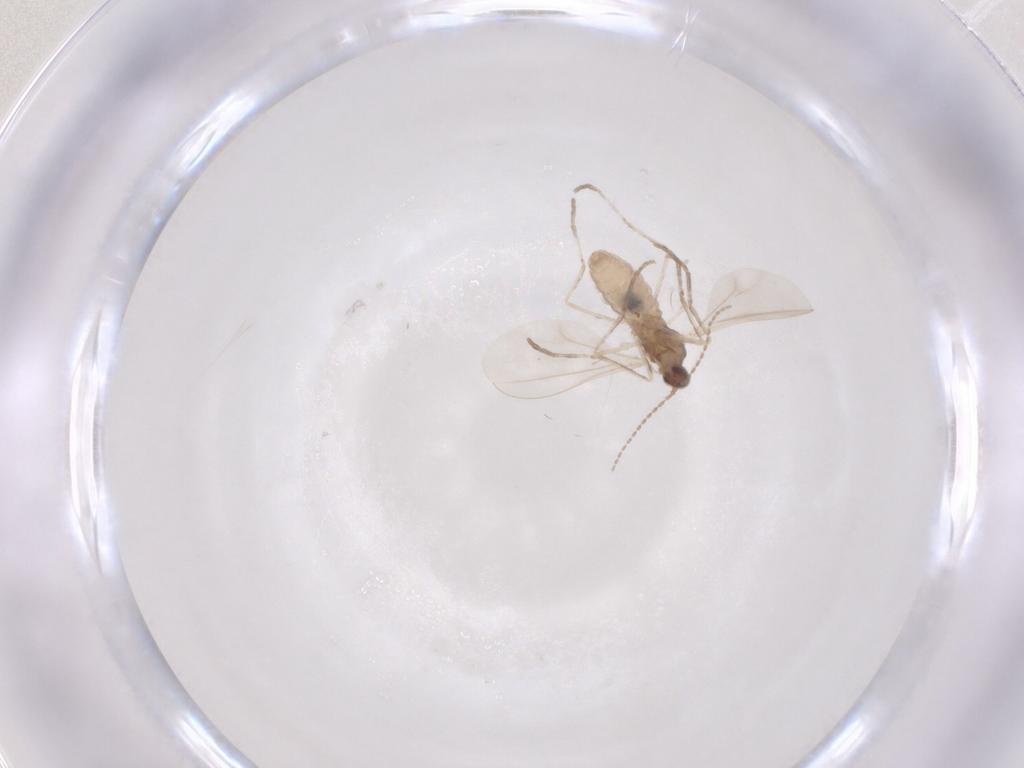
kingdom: Animalia
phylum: Arthropoda
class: Insecta
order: Diptera
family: Cecidomyiidae
